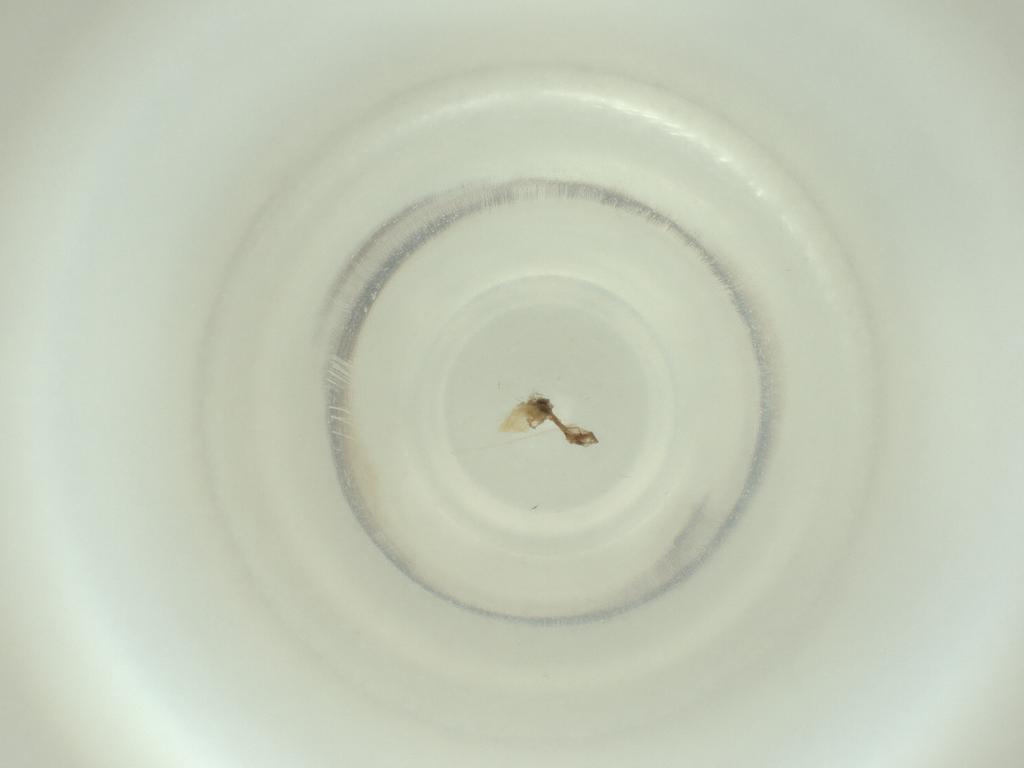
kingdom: Animalia
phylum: Arthropoda
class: Insecta
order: Diptera
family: Cecidomyiidae
